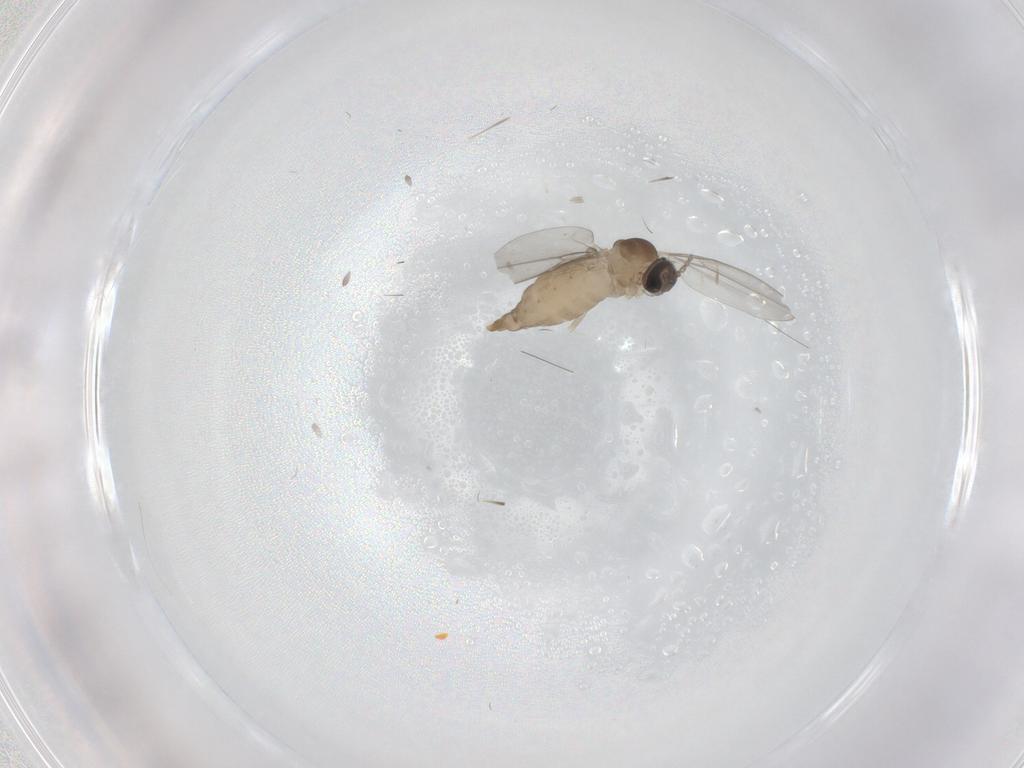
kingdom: Animalia
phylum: Arthropoda
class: Insecta
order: Diptera
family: Cecidomyiidae
